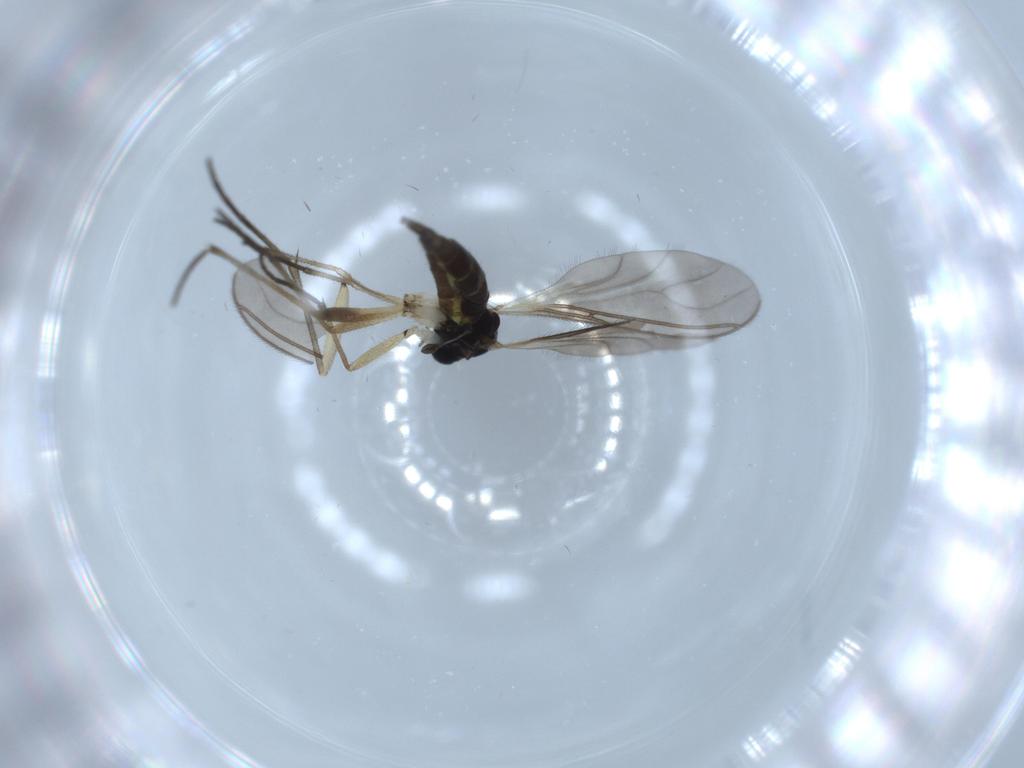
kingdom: Animalia
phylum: Arthropoda
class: Insecta
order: Diptera
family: Sciaridae
